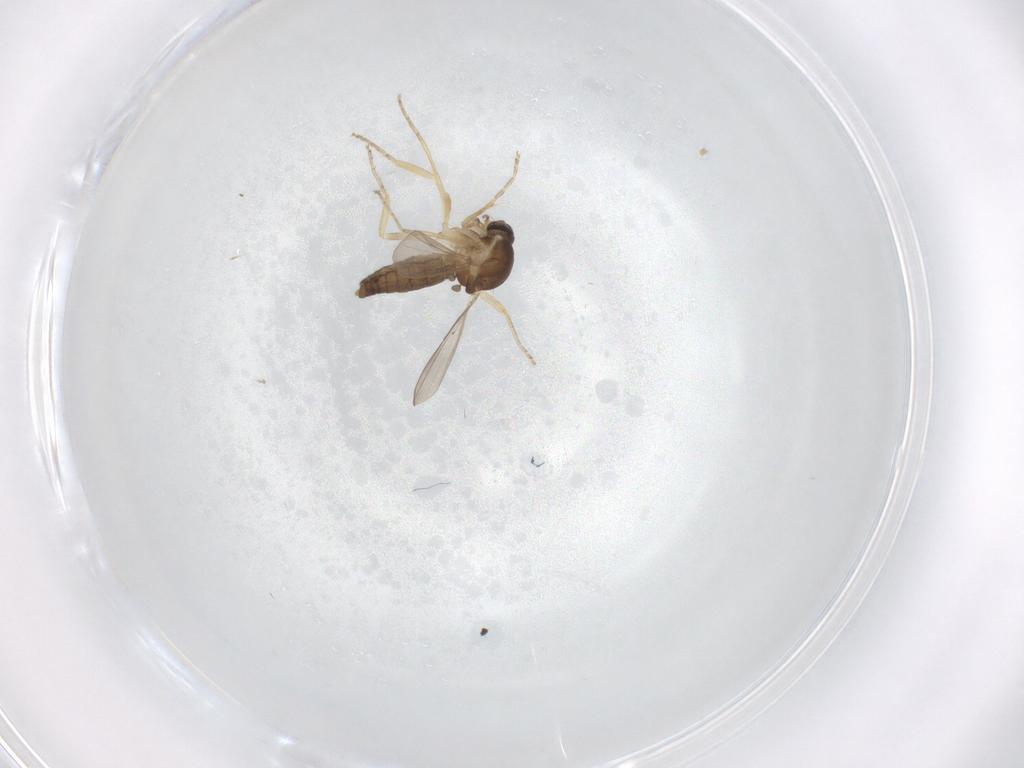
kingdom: Animalia
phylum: Arthropoda
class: Insecta
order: Diptera
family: Ceratopogonidae
